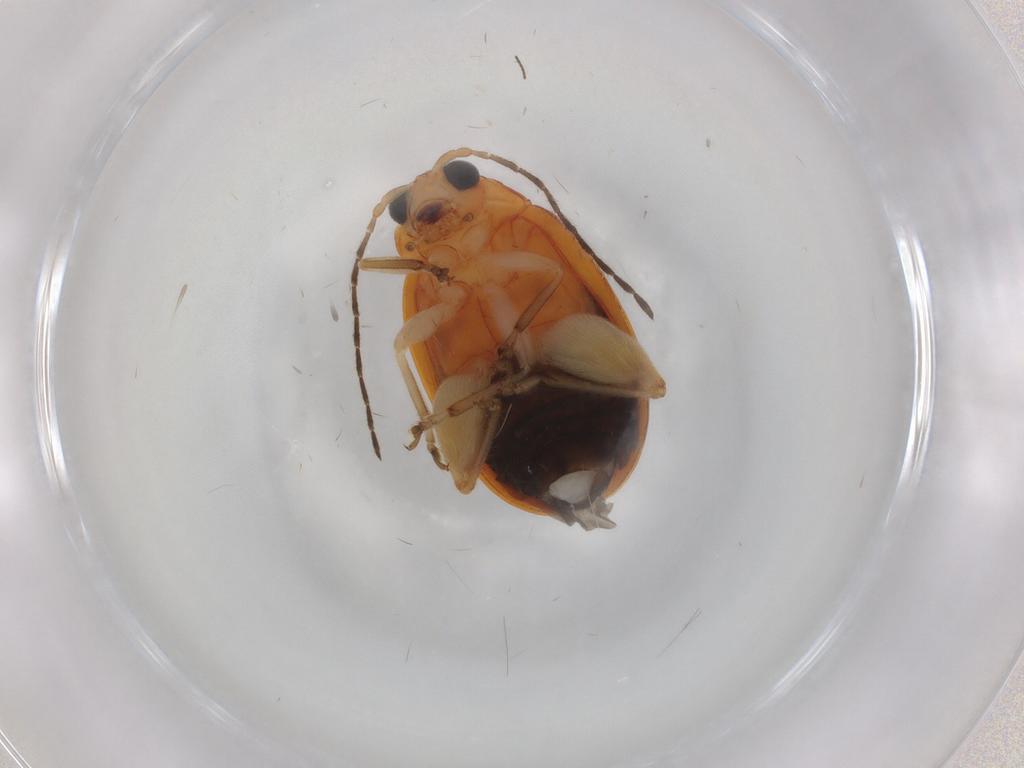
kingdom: Animalia
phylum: Arthropoda
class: Insecta
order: Coleoptera
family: Chrysomelidae
